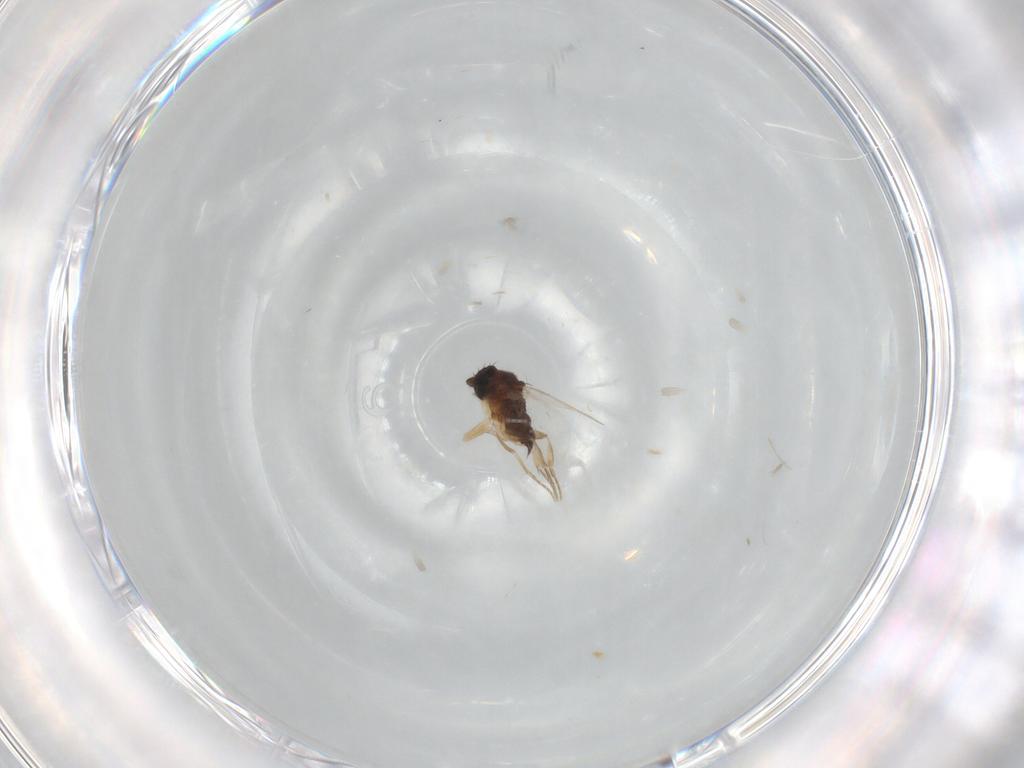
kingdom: Animalia
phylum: Arthropoda
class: Insecta
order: Diptera
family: Phoridae
